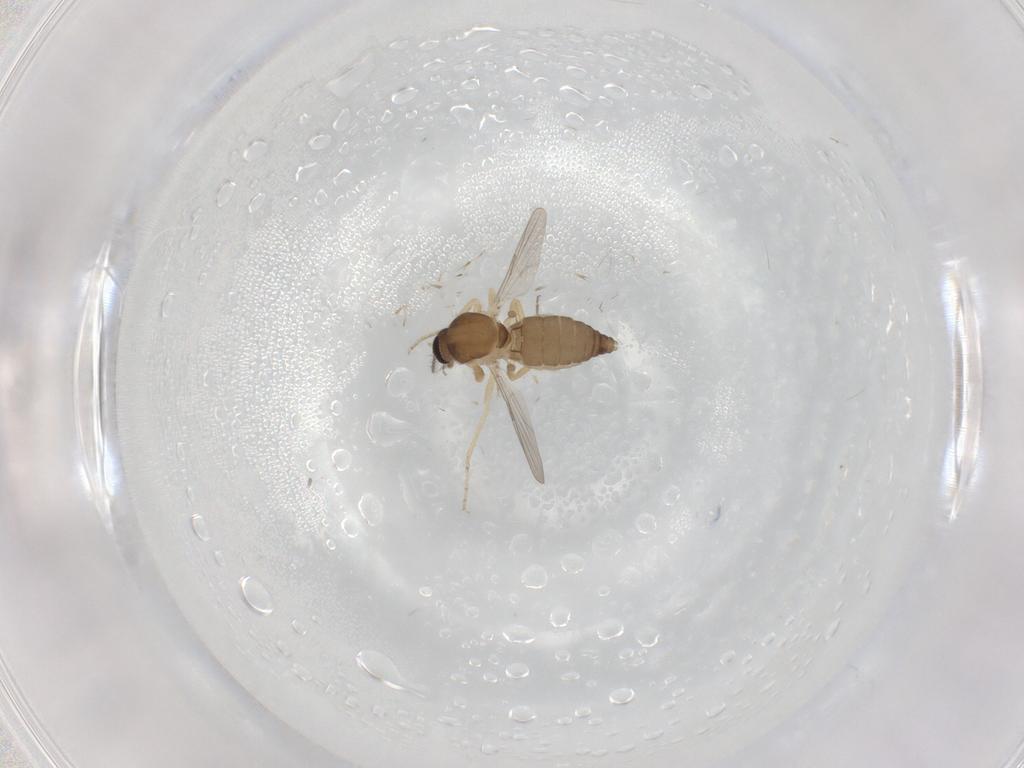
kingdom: Animalia
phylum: Arthropoda
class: Insecta
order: Diptera
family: Ceratopogonidae
